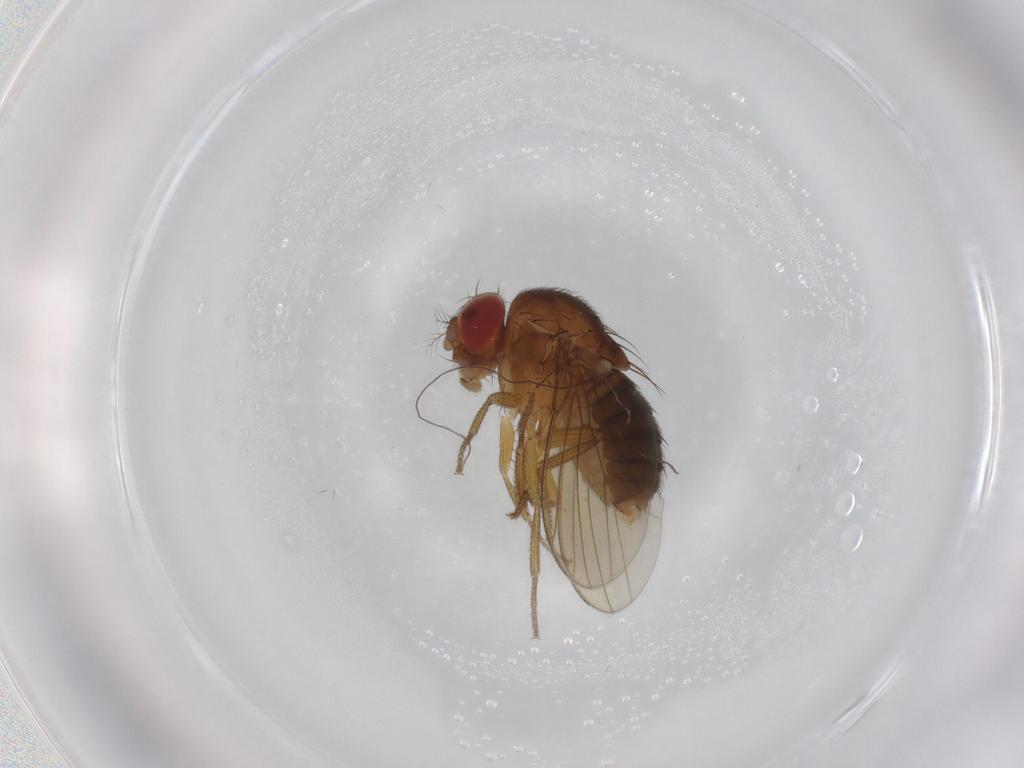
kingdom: Animalia
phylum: Arthropoda
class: Insecta
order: Diptera
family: Drosophilidae
